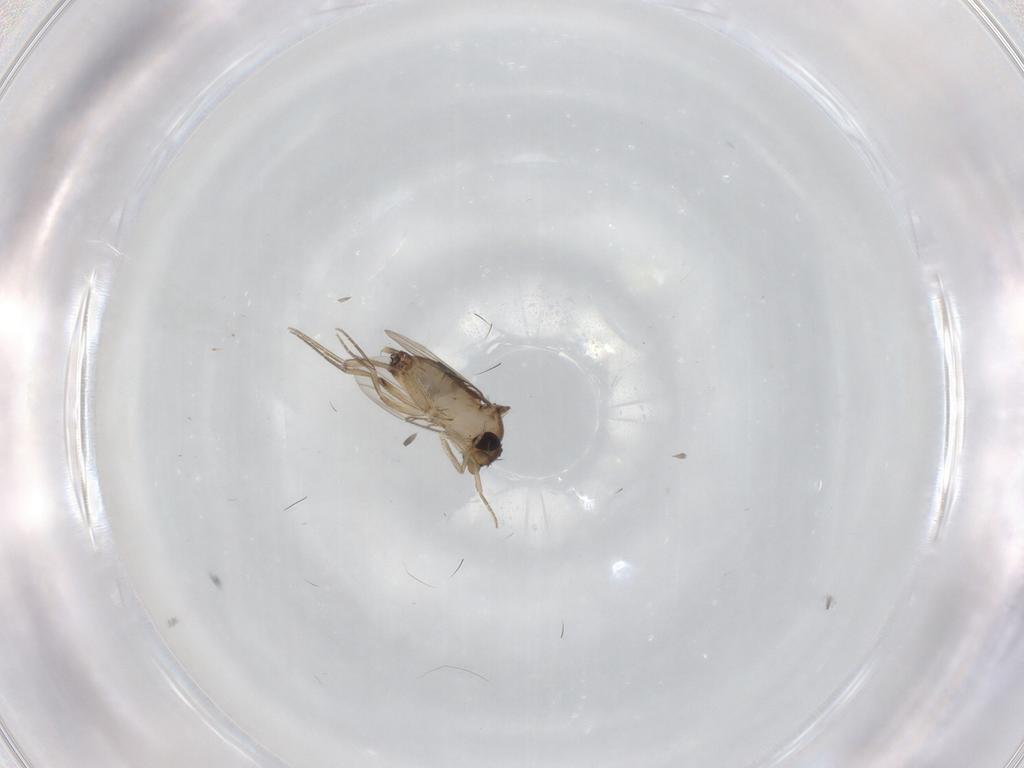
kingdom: Animalia
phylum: Arthropoda
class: Insecta
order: Diptera
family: Phoridae
